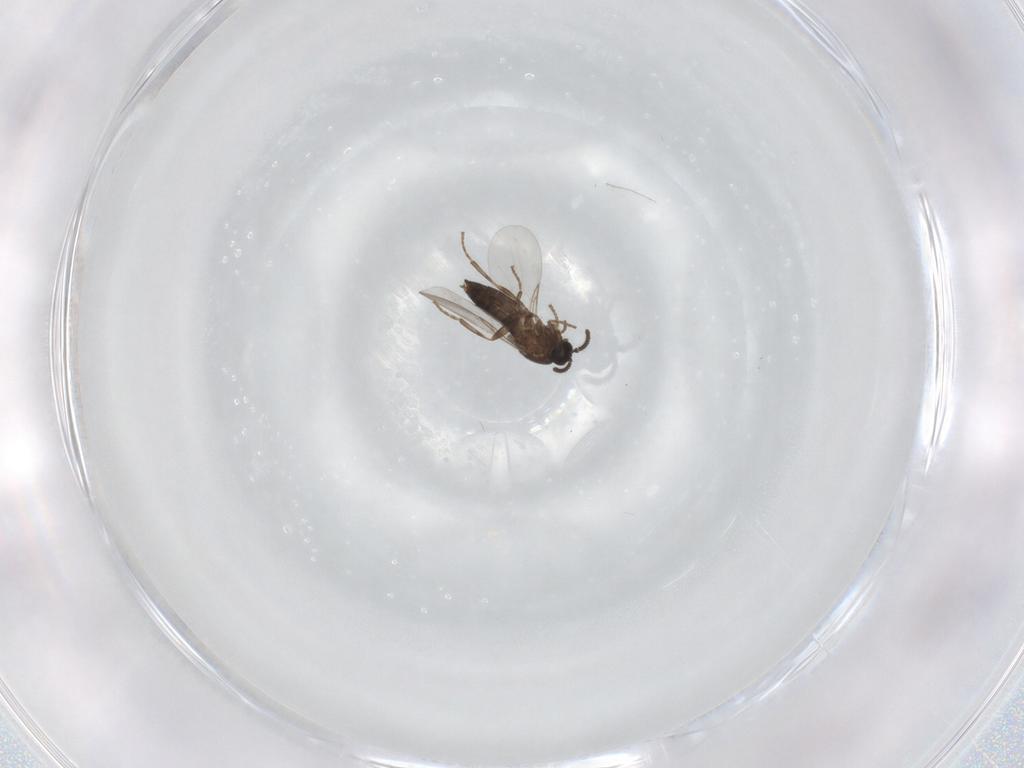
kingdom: Animalia
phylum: Arthropoda
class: Insecta
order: Diptera
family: Scatopsidae
